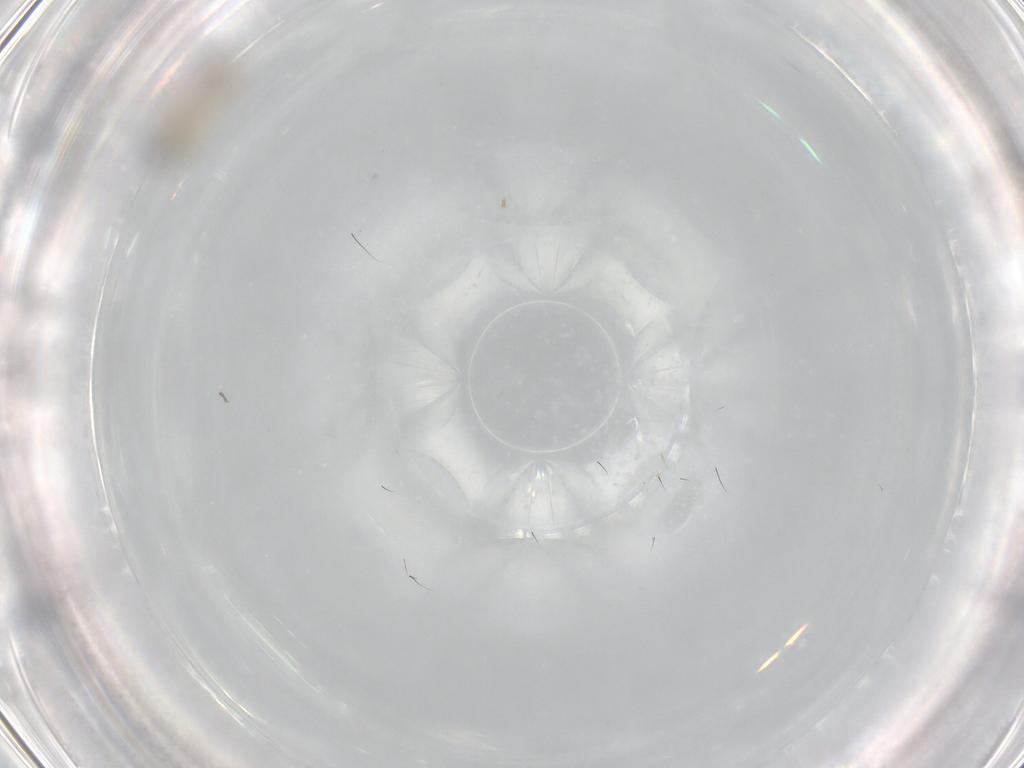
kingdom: Animalia
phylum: Arthropoda
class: Insecta
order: Diptera
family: Cecidomyiidae
